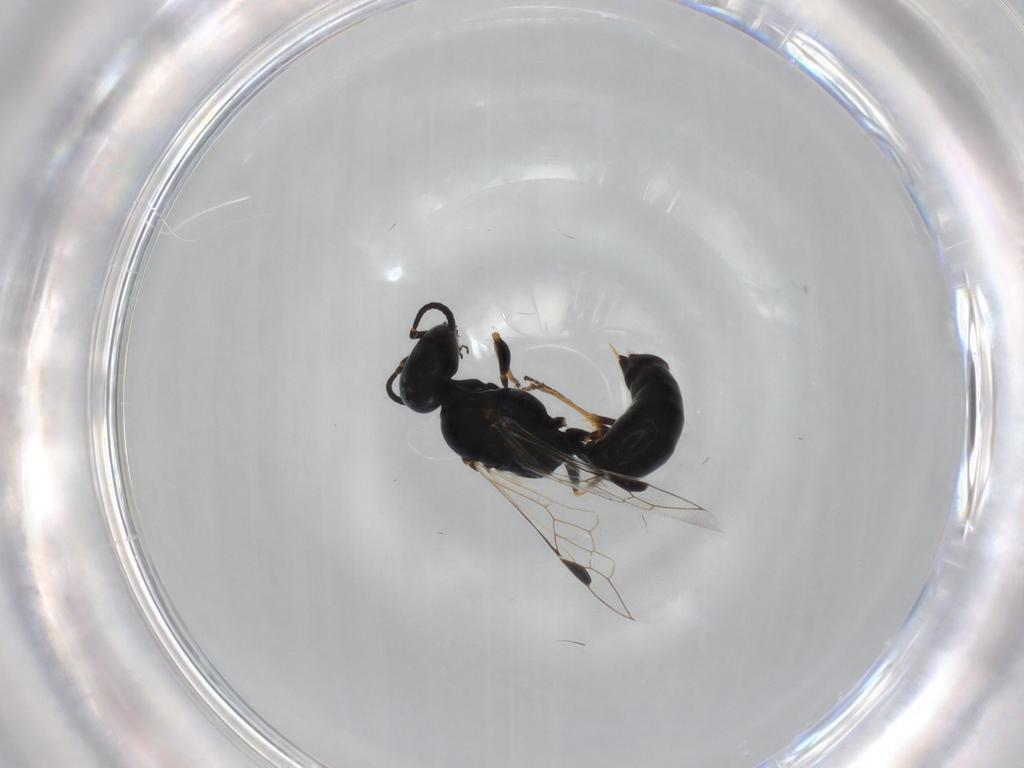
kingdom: Animalia
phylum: Arthropoda
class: Insecta
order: Hymenoptera
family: Crabronidae
